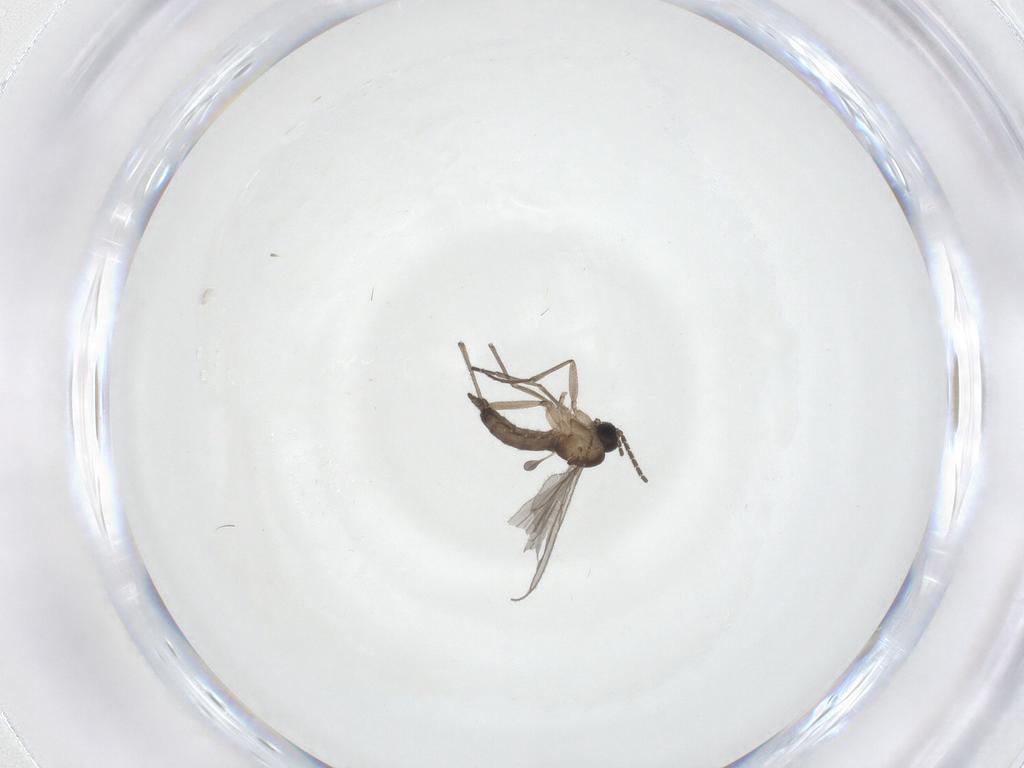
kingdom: Animalia
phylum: Arthropoda
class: Insecta
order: Diptera
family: Sciaridae
